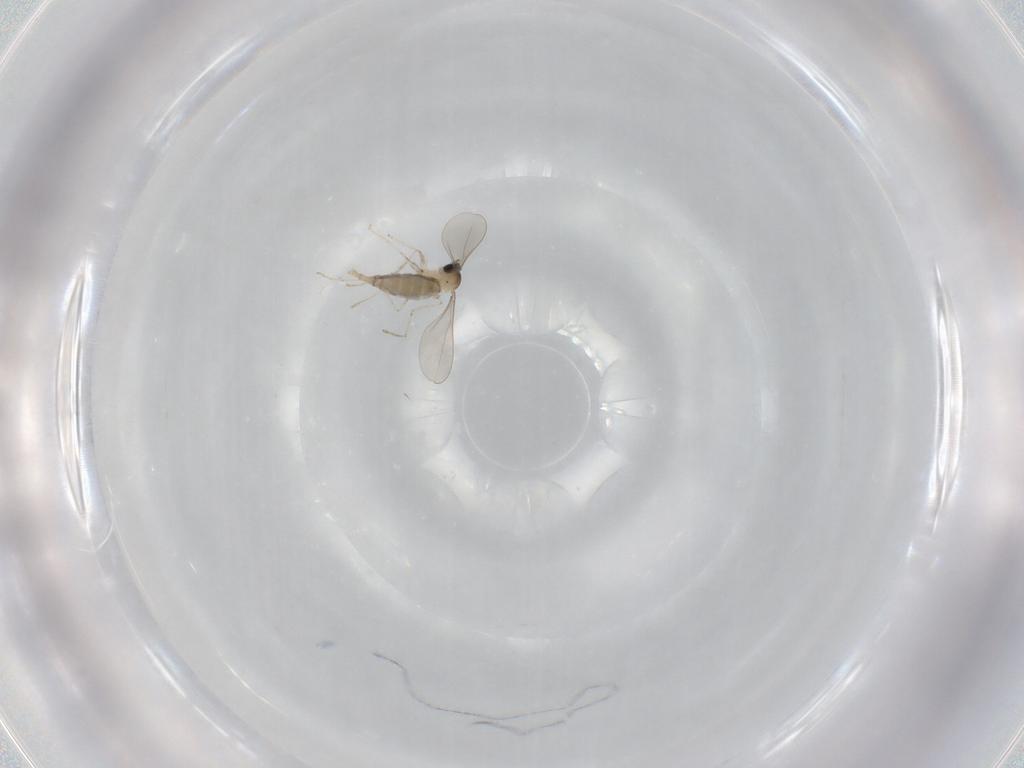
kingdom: Animalia
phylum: Arthropoda
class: Insecta
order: Diptera
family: Cecidomyiidae
